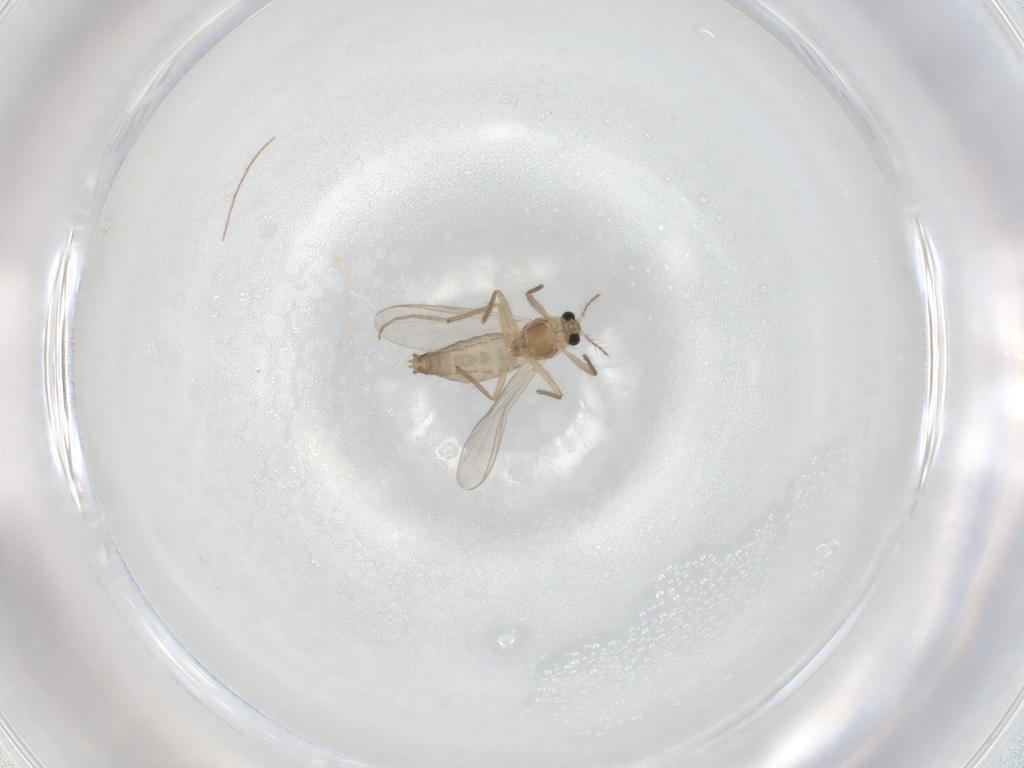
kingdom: Animalia
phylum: Arthropoda
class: Insecta
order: Diptera
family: Chironomidae
